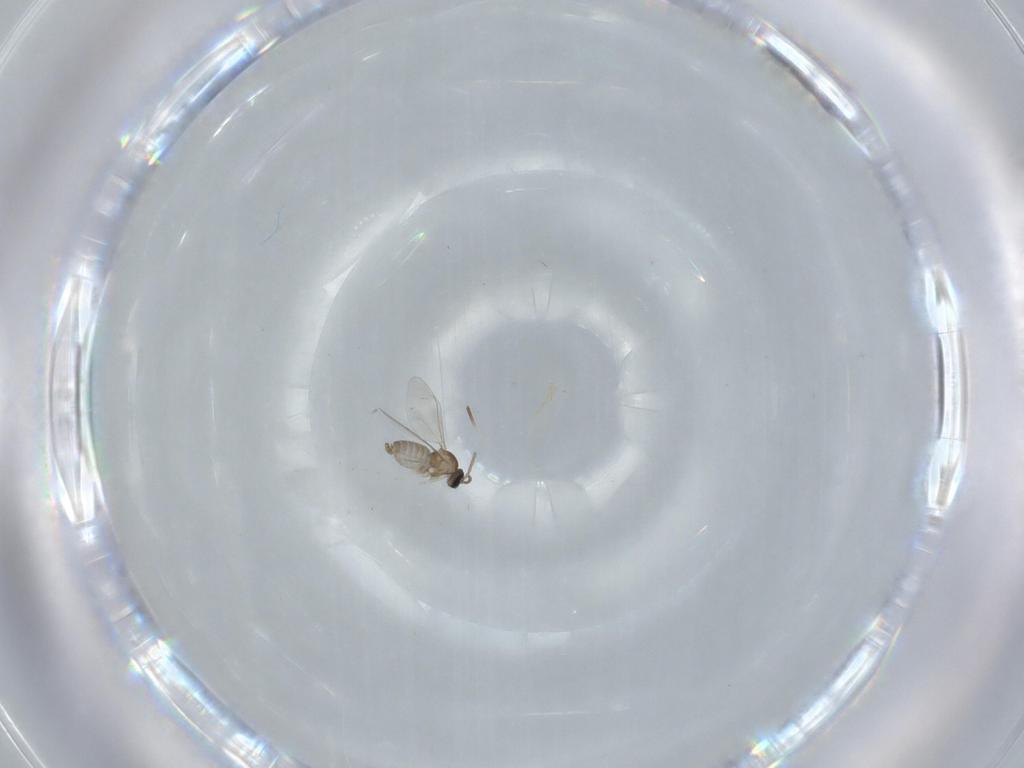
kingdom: Animalia
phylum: Arthropoda
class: Insecta
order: Diptera
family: Cecidomyiidae
